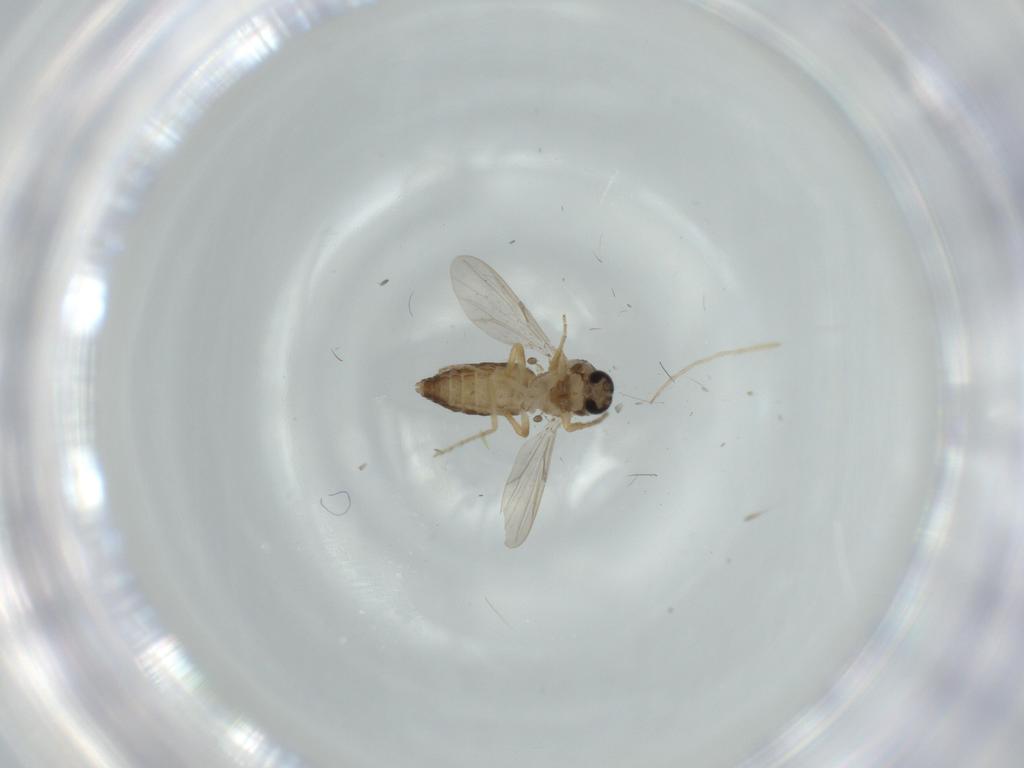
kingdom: Animalia
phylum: Arthropoda
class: Insecta
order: Diptera
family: Ceratopogonidae
